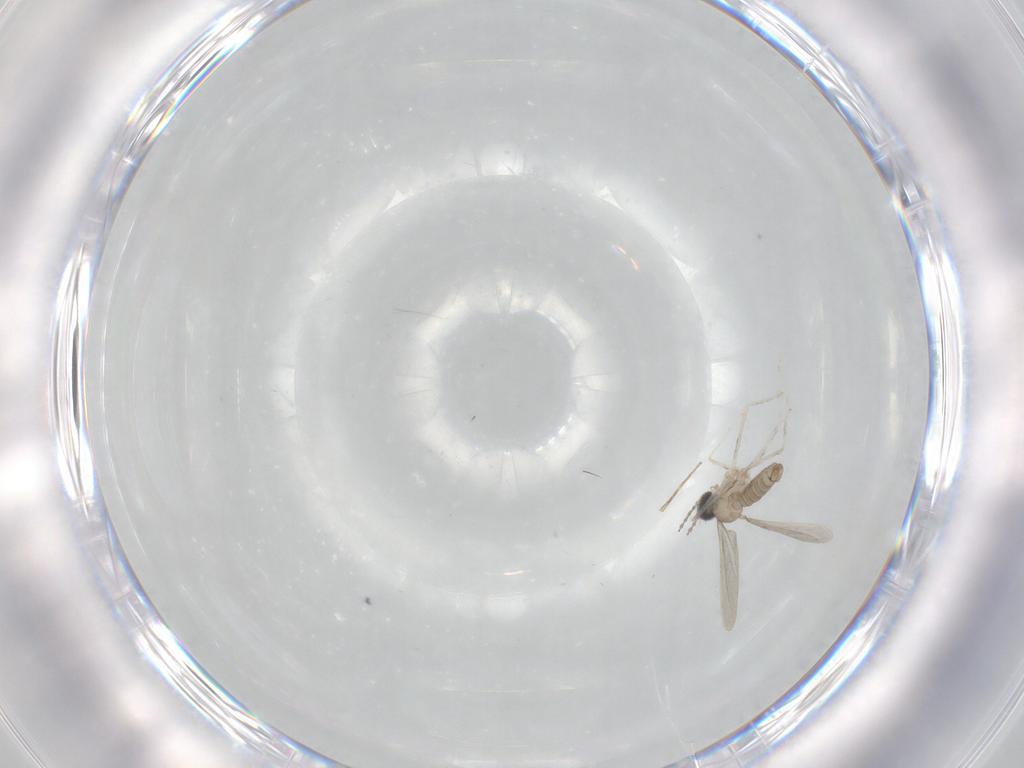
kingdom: Animalia
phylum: Arthropoda
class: Insecta
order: Diptera
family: Cecidomyiidae
